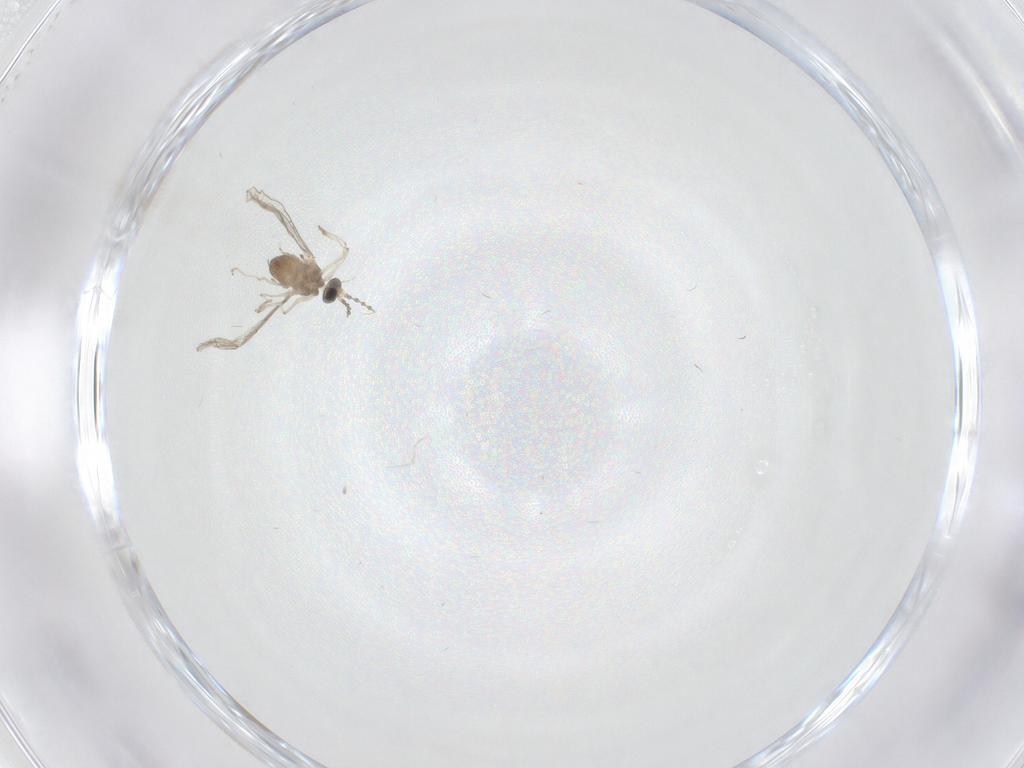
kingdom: Animalia
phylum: Arthropoda
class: Insecta
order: Diptera
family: Cecidomyiidae
